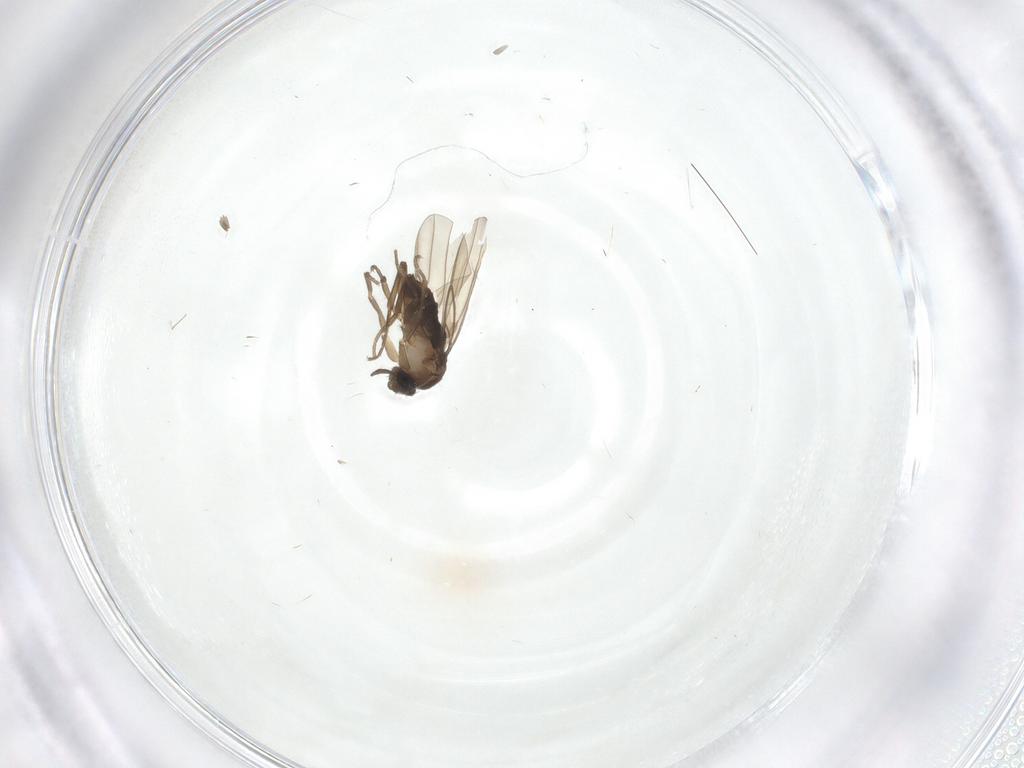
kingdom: Animalia
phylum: Arthropoda
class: Insecta
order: Diptera
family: Phoridae
